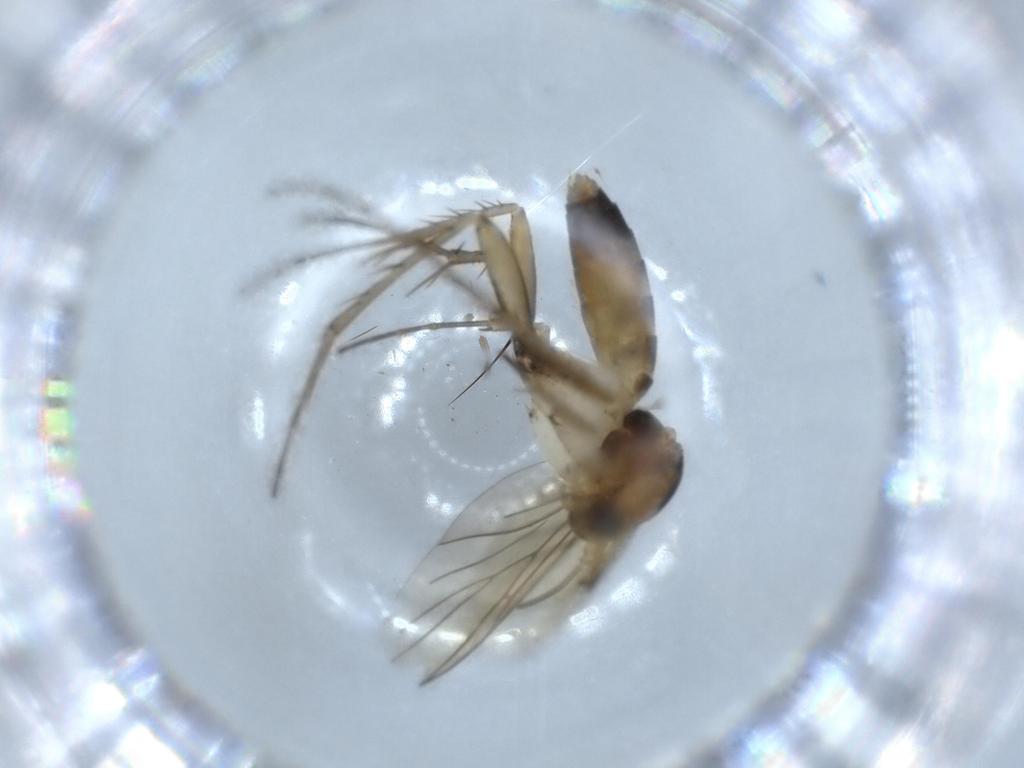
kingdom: Animalia
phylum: Arthropoda
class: Insecta
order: Diptera
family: Mycetophilidae
